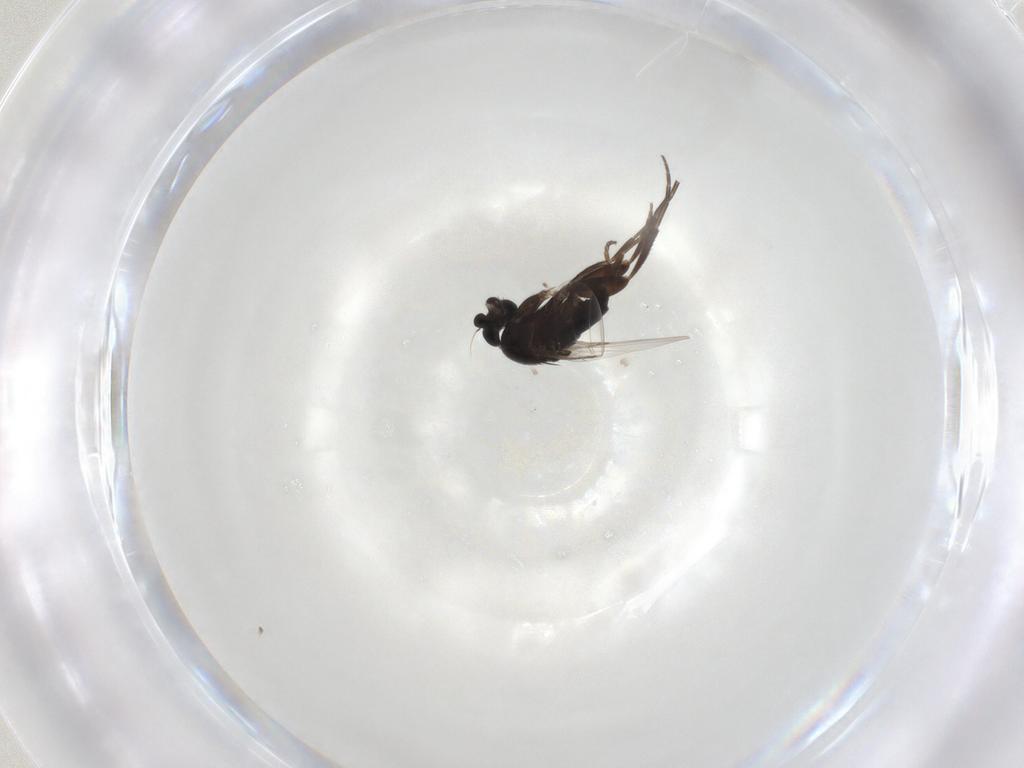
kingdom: Animalia
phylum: Arthropoda
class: Insecta
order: Diptera
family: Phoridae
